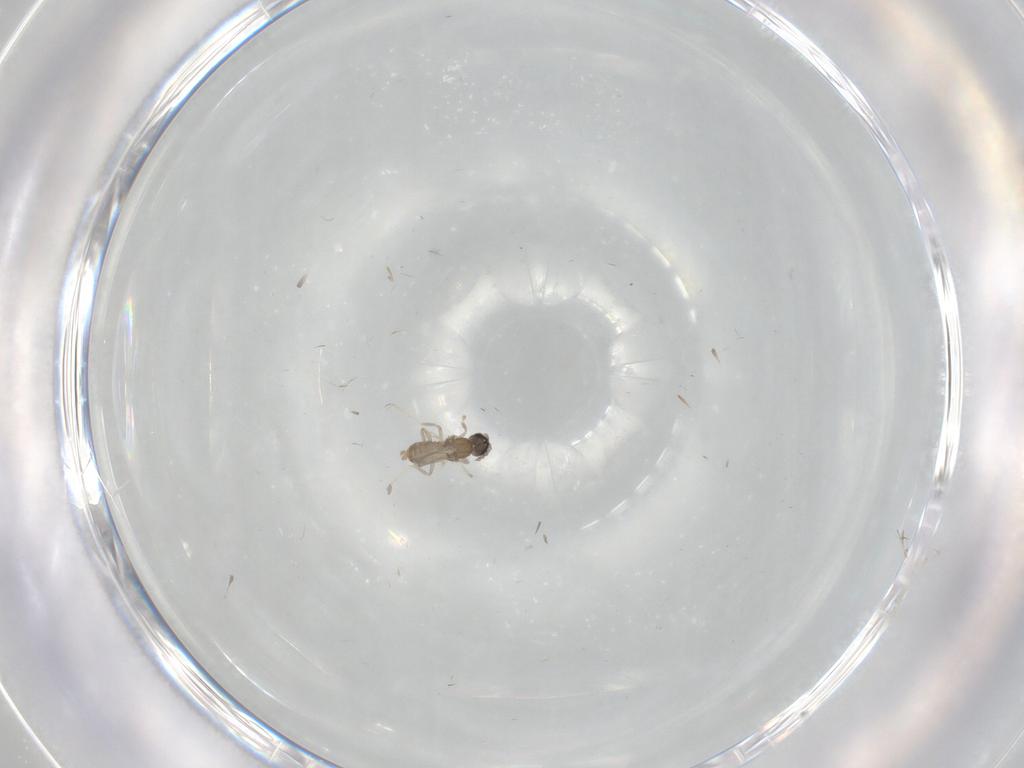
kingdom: Animalia
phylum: Arthropoda
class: Insecta
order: Diptera
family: Cecidomyiidae
